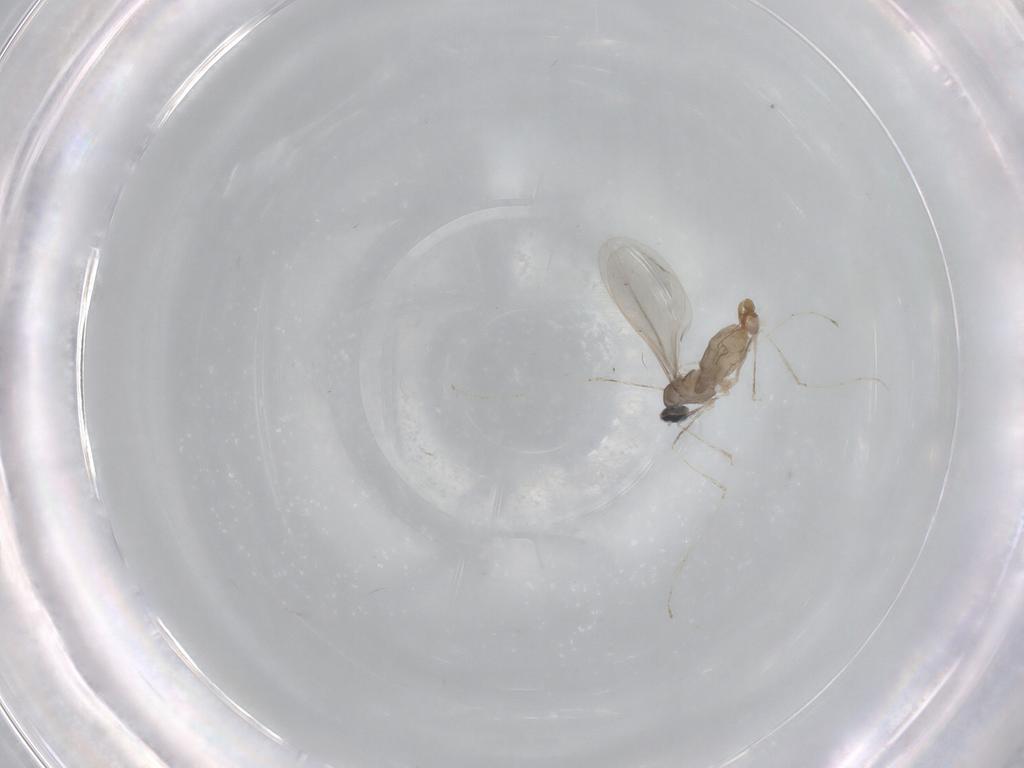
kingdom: Animalia
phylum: Arthropoda
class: Insecta
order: Diptera
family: Cecidomyiidae
